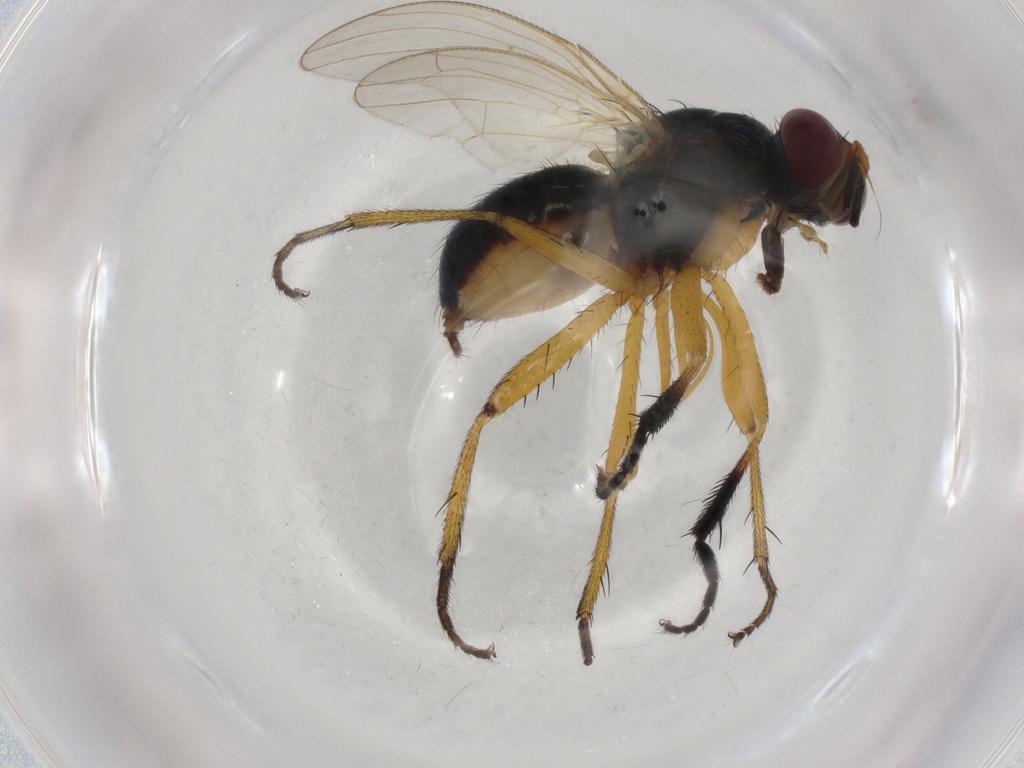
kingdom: Animalia
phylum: Arthropoda
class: Insecta
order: Diptera
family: Muscidae
